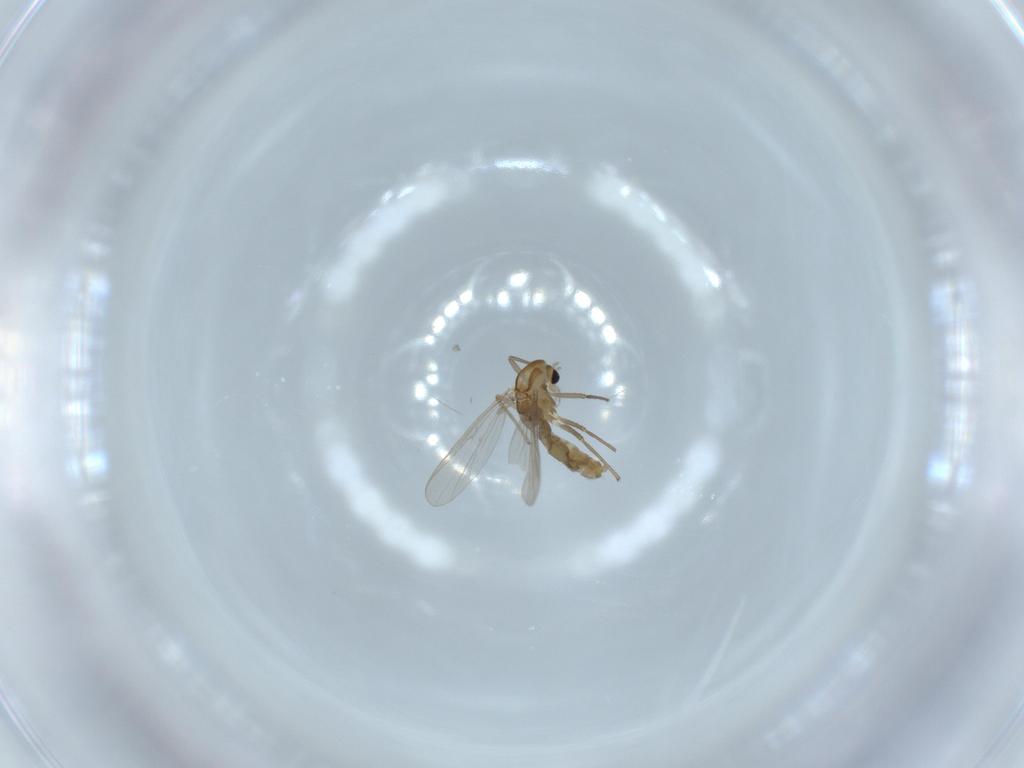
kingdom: Animalia
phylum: Arthropoda
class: Insecta
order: Diptera
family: Chironomidae
